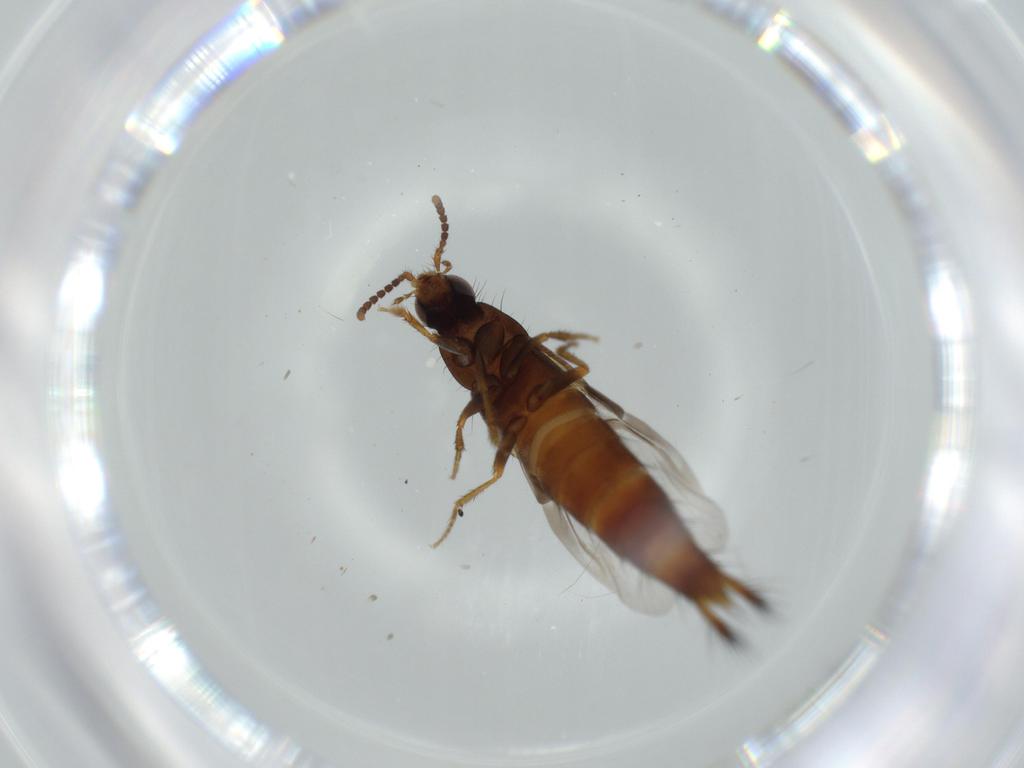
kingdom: Animalia
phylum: Arthropoda
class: Insecta
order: Coleoptera
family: Staphylinidae
